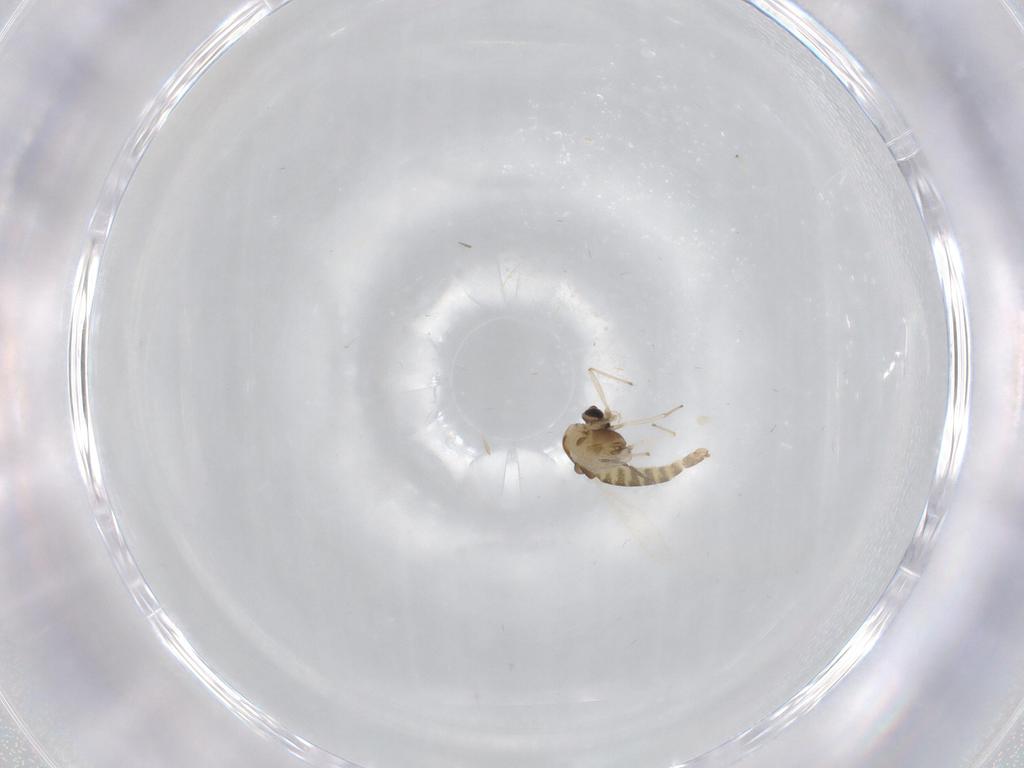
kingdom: Animalia
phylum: Arthropoda
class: Insecta
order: Diptera
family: Chironomidae
